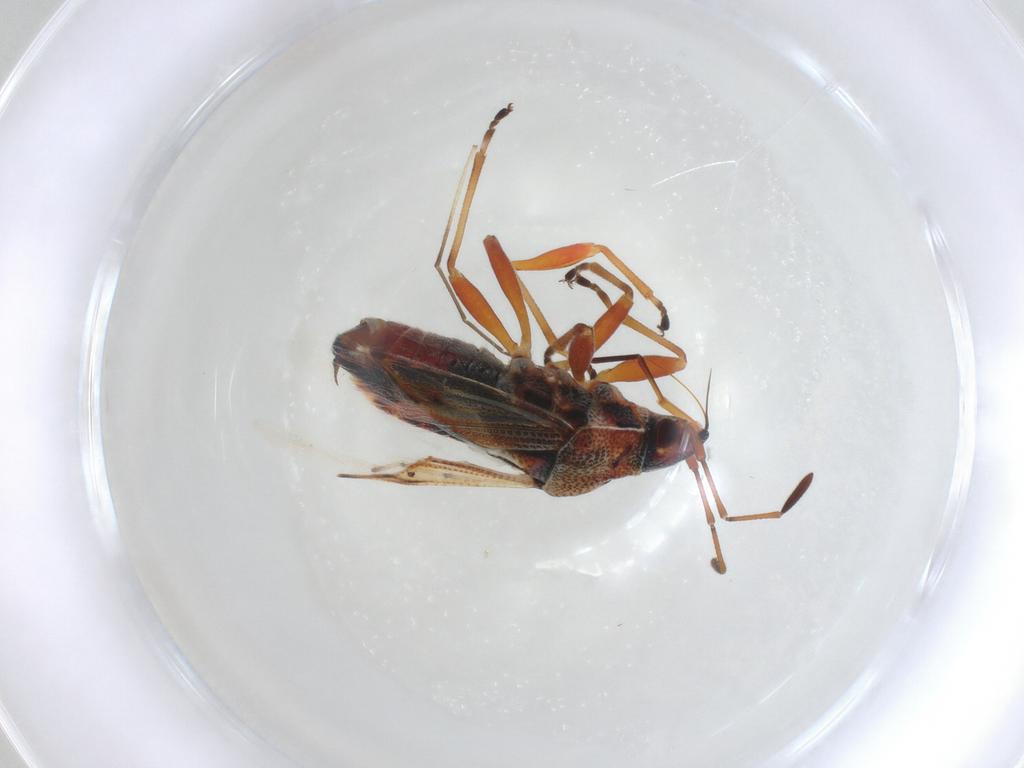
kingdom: Animalia
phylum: Arthropoda
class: Insecta
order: Hemiptera
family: Lygaeidae
